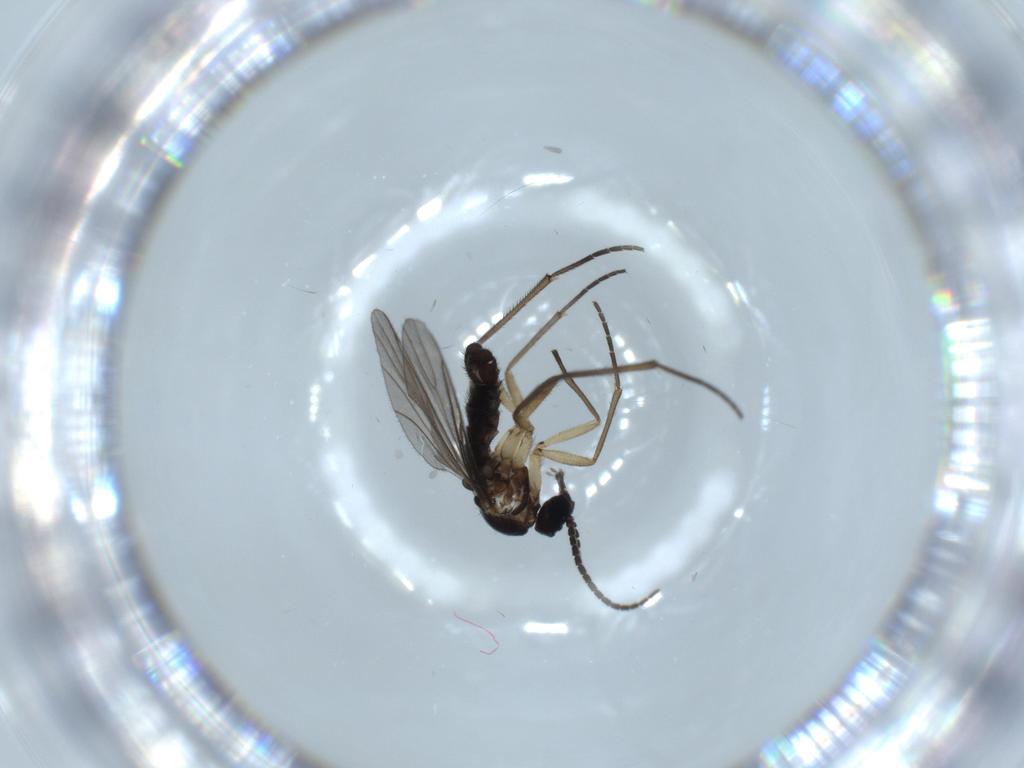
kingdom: Animalia
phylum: Arthropoda
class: Insecta
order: Diptera
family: Sciaridae
